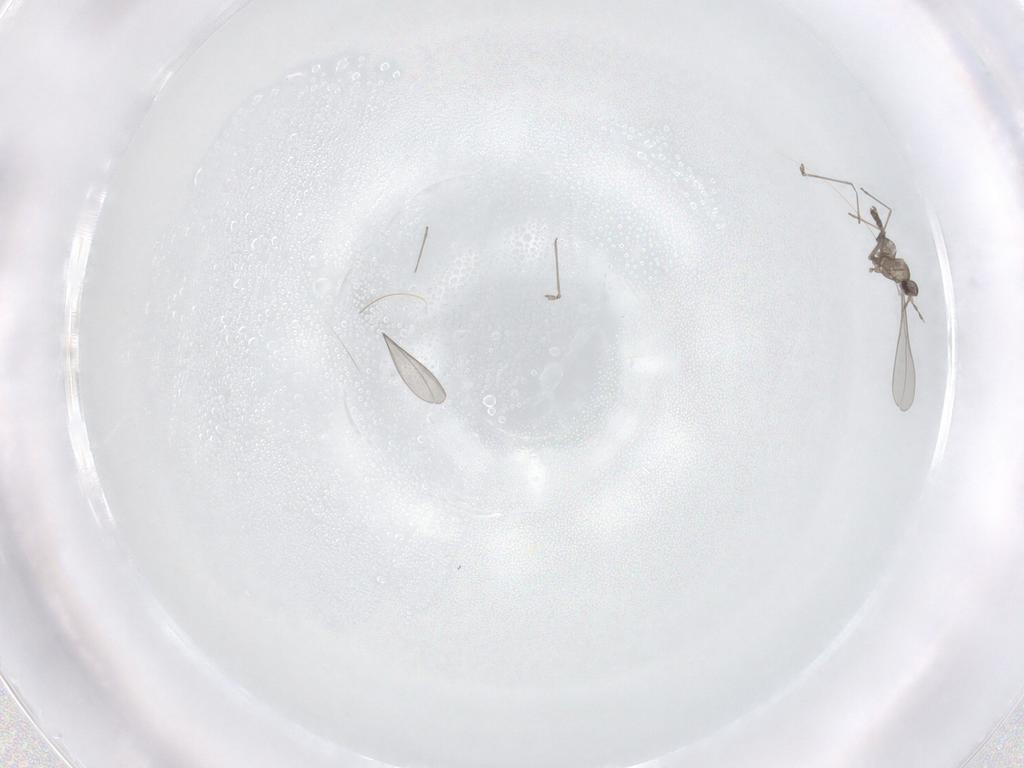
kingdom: Animalia
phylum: Arthropoda
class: Insecta
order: Diptera
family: Cecidomyiidae
